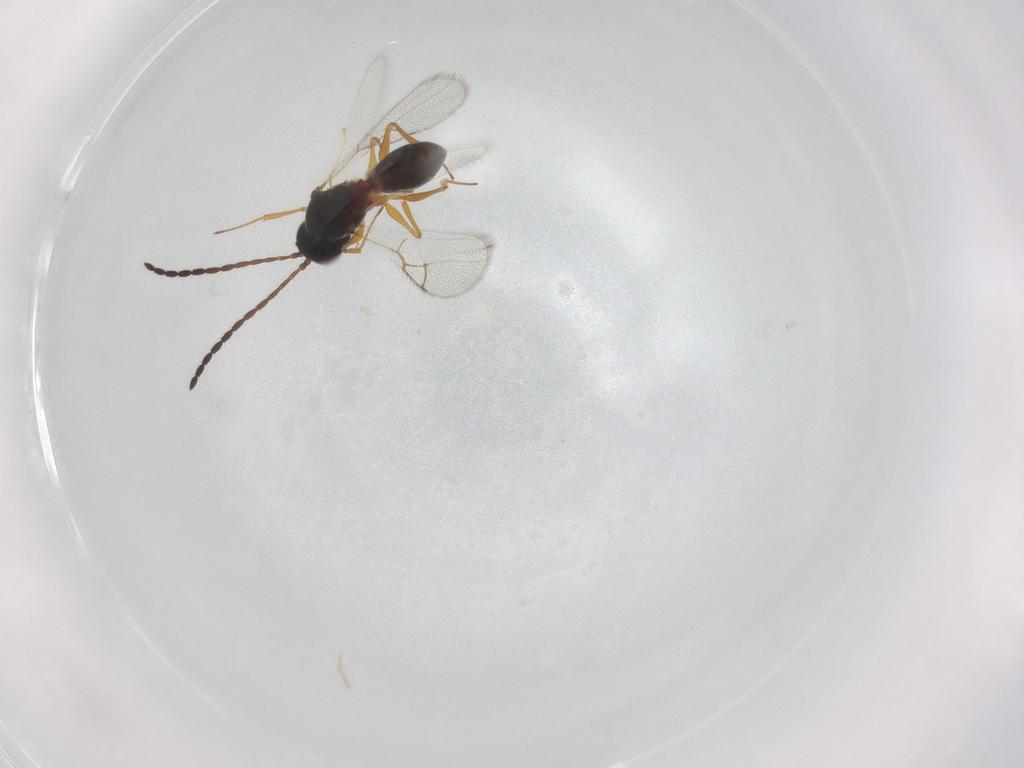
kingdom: Animalia
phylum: Arthropoda
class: Insecta
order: Hymenoptera
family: Figitidae
